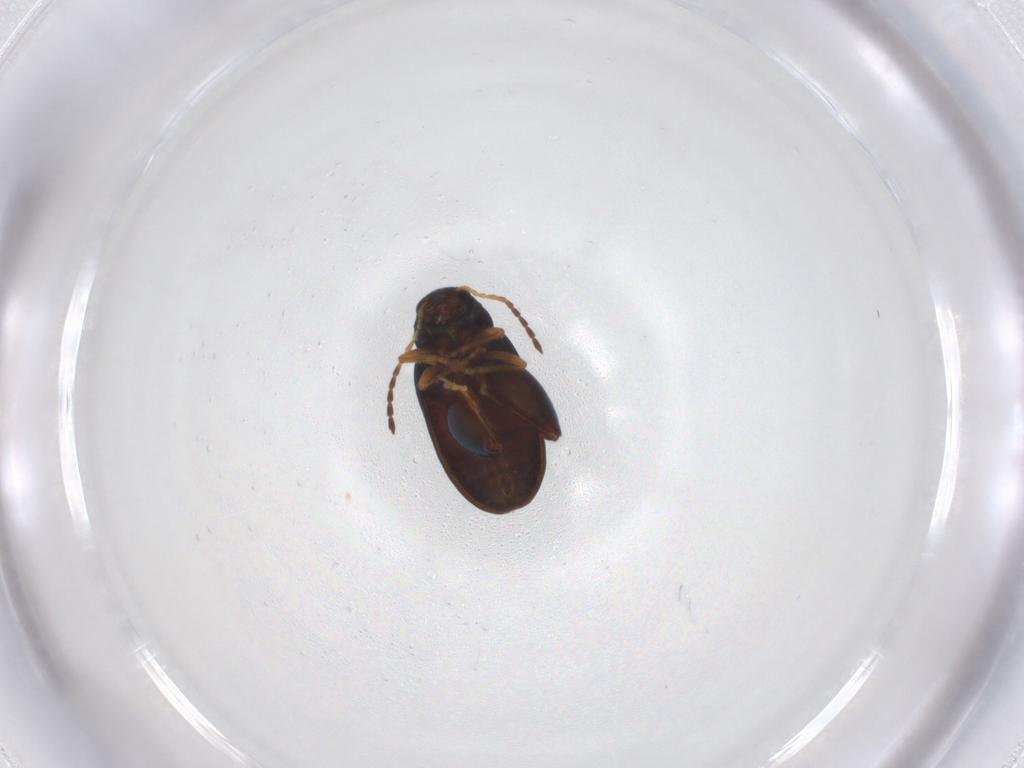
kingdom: Animalia
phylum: Arthropoda
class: Insecta
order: Coleoptera
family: Chrysomelidae
